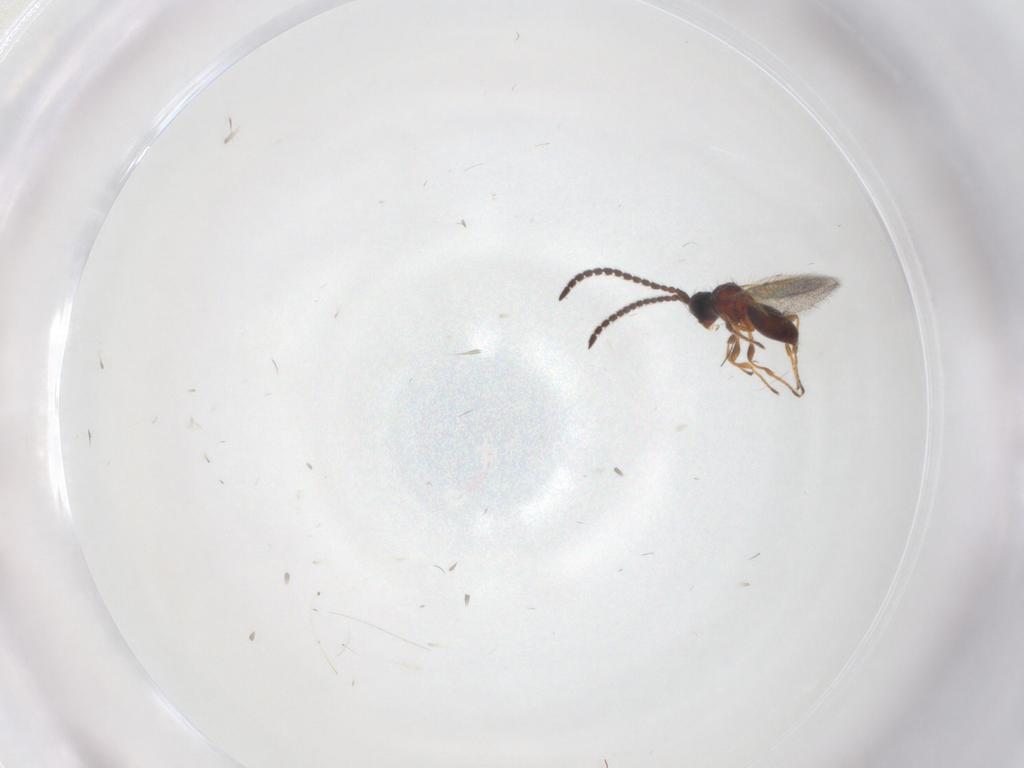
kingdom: Animalia
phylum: Arthropoda
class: Insecta
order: Hymenoptera
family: Diapriidae
